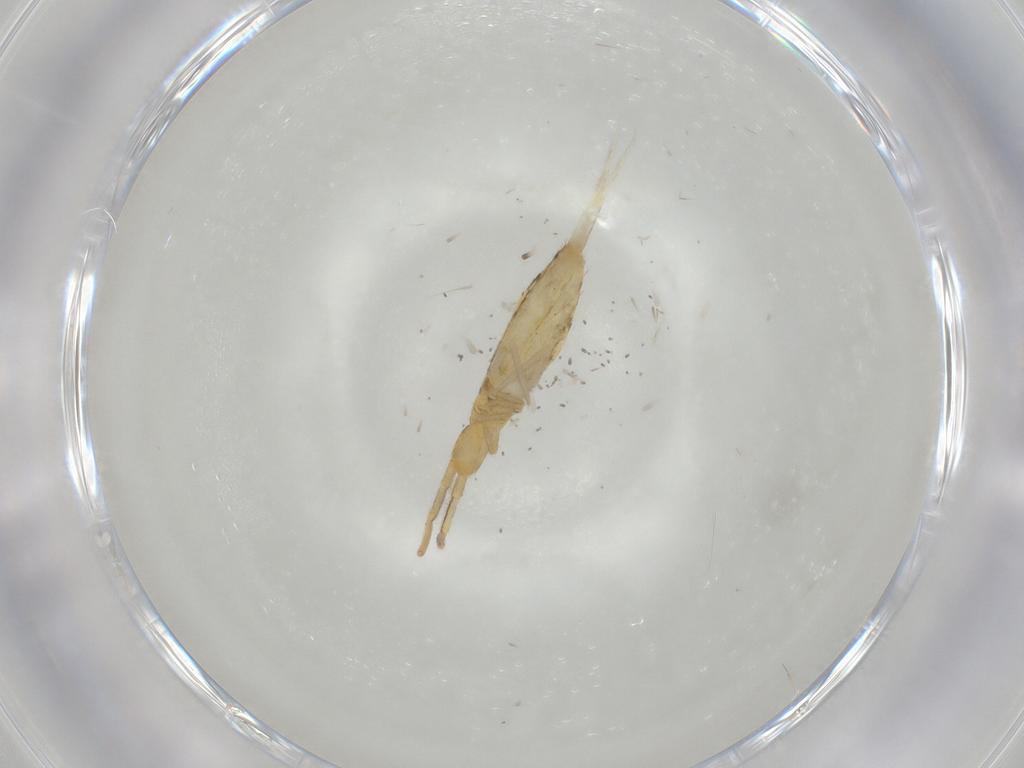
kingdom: Animalia
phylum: Arthropoda
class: Collembola
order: Entomobryomorpha
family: Entomobryidae
